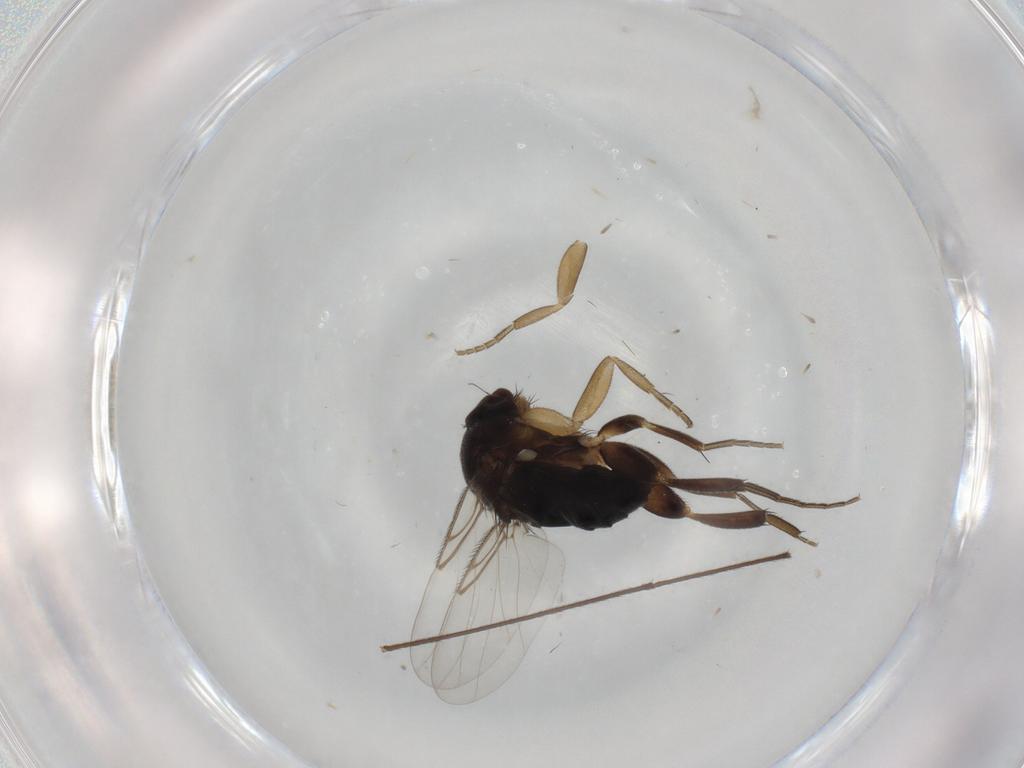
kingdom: Animalia
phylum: Arthropoda
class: Insecta
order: Diptera
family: Phoridae
